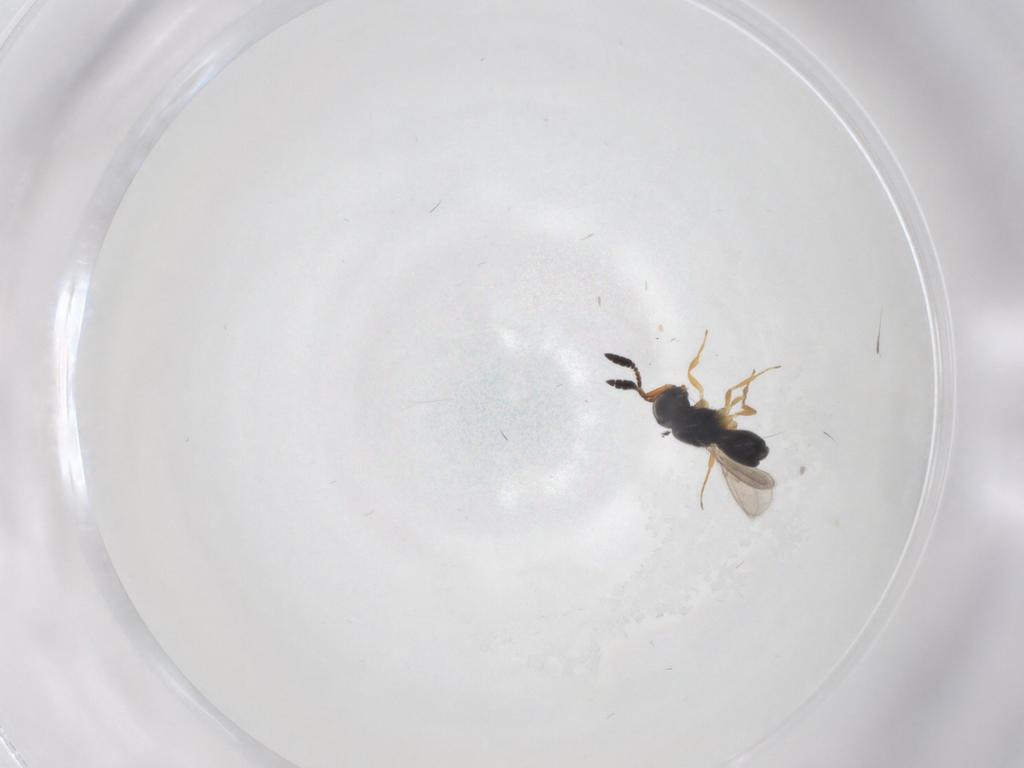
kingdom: Animalia
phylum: Arthropoda
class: Insecta
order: Hymenoptera
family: Scelionidae
